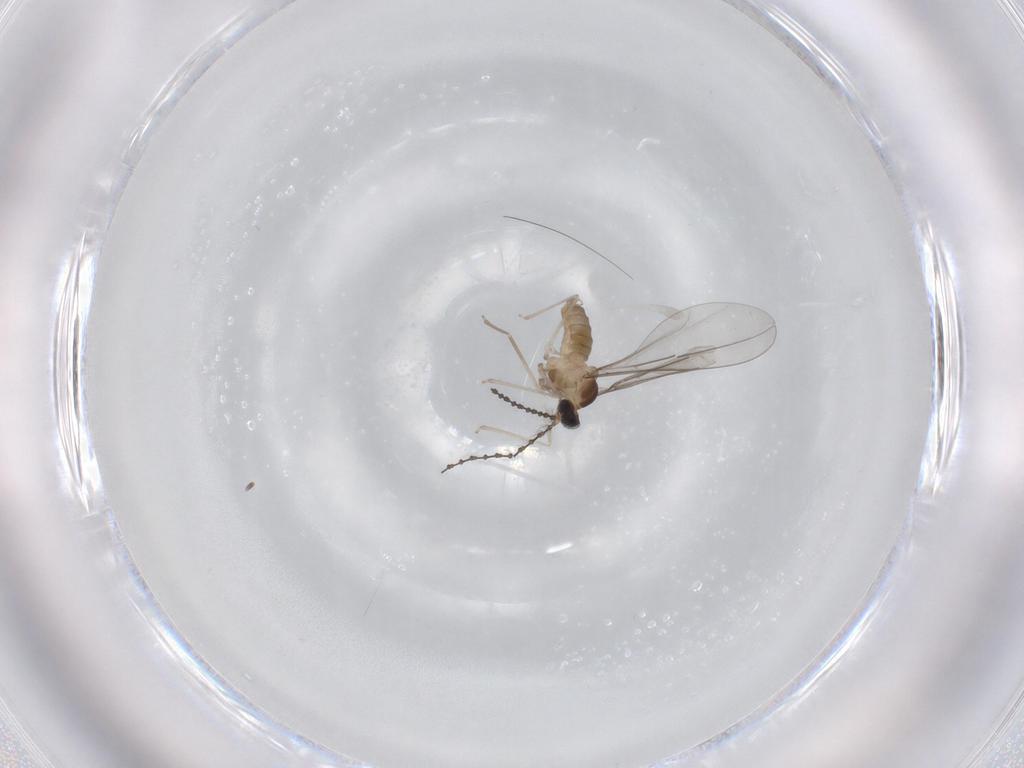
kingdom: Animalia
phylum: Arthropoda
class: Insecta
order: Diptera
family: Cecidomyiidae
